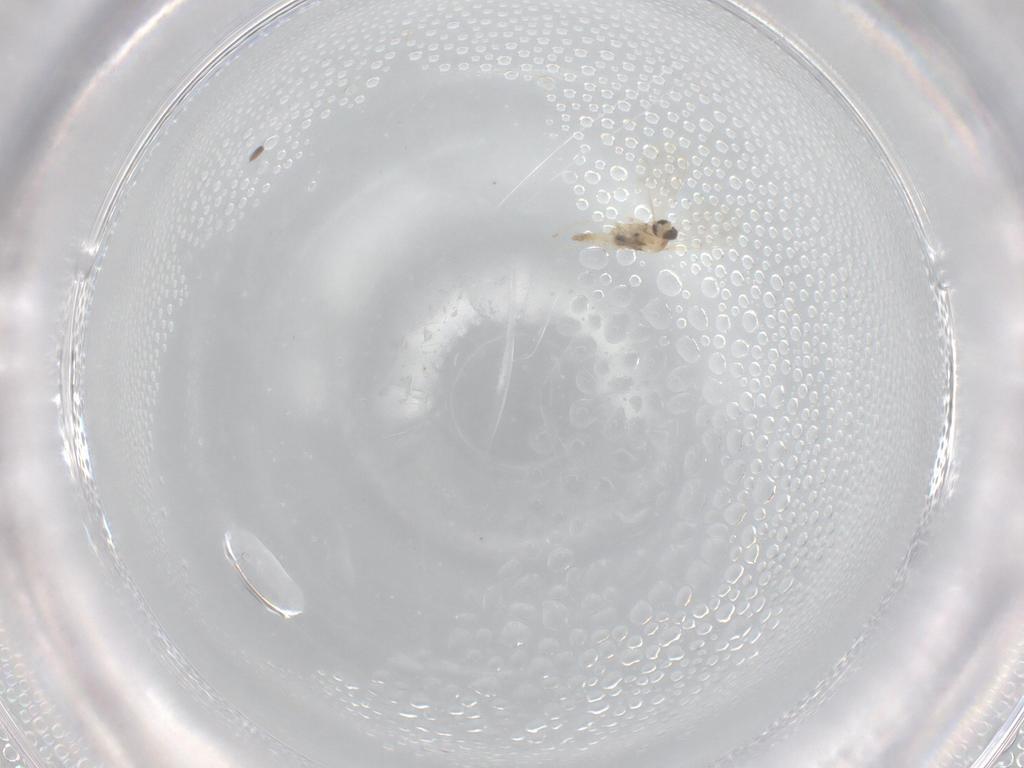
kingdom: Animalia
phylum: Arthropoda
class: Insecta
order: Diptera
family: Cecidomyiidae
